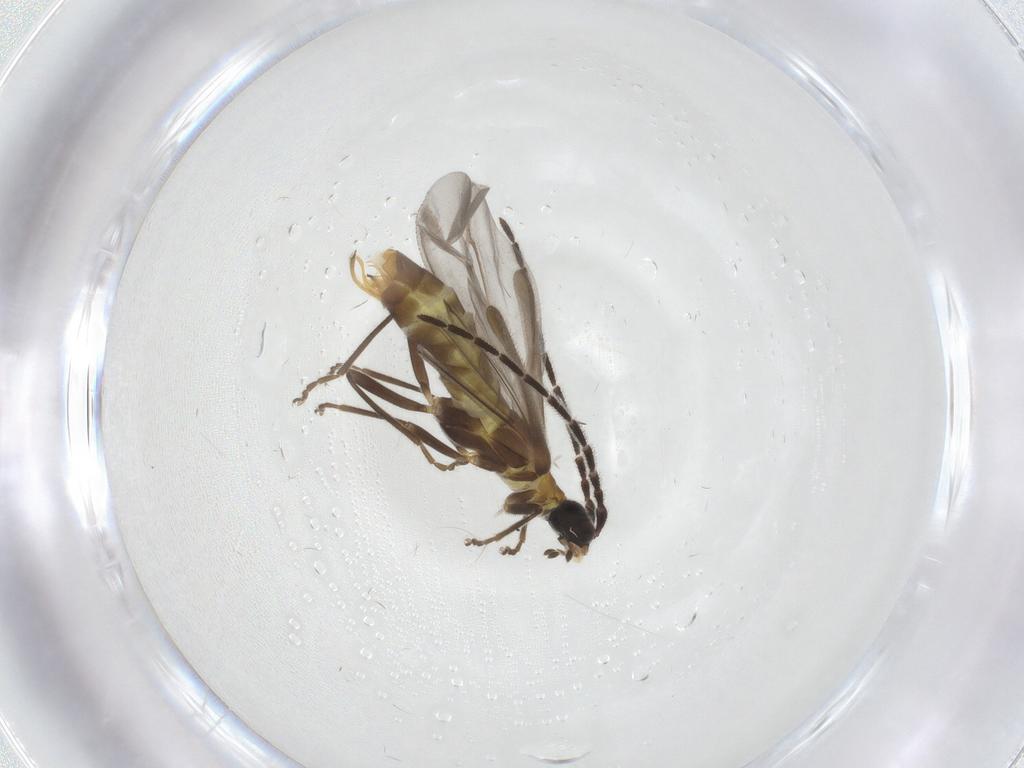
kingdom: Animalia
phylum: Arthropoda
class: Insecta
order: Coleoptera
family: Cantharidae
